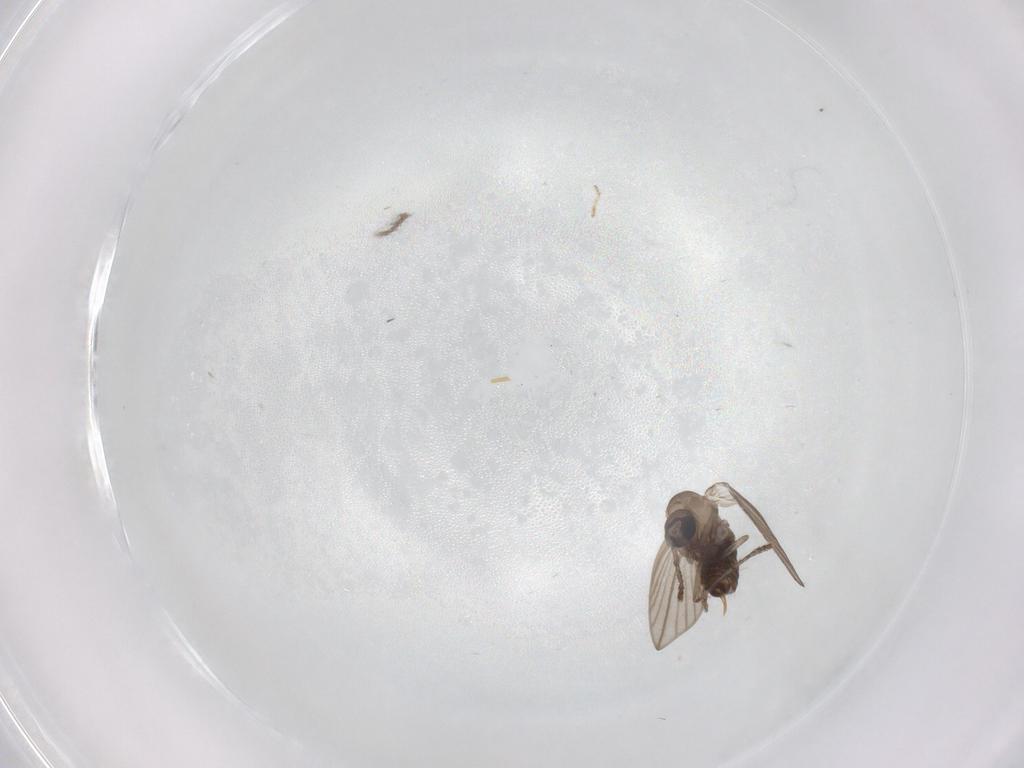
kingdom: Animalia
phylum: Arthropoda
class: Insecta
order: Diptera
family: Psychodidae
